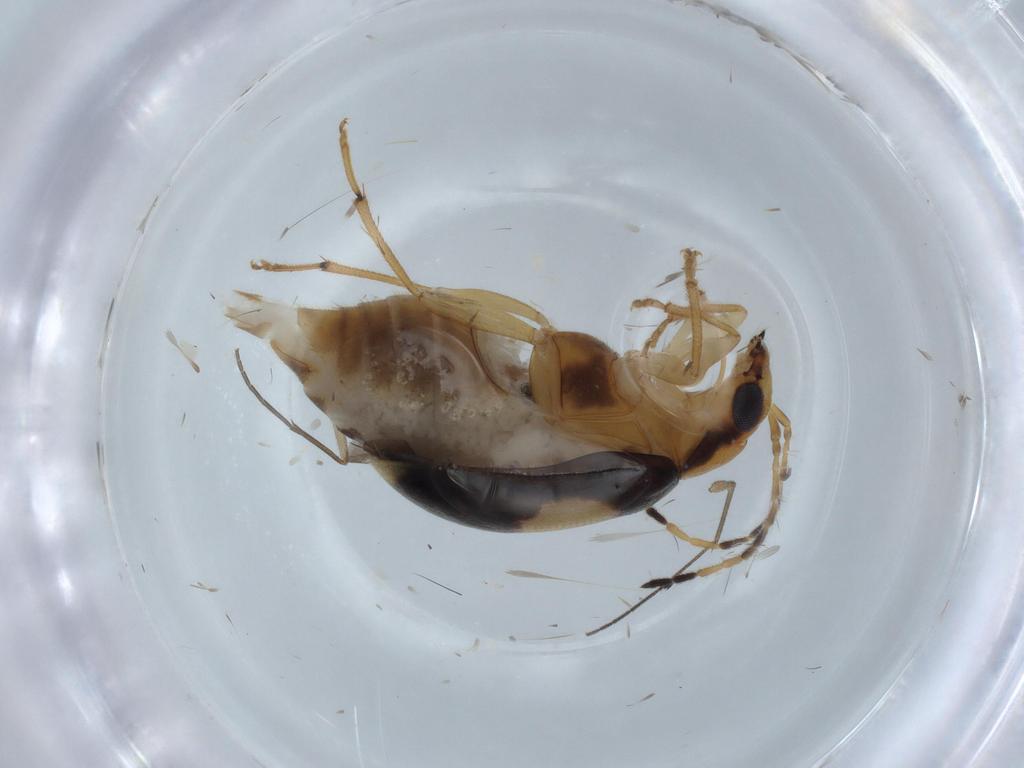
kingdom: Animalia
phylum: Arthropoda
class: Insecta
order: Coleoptera
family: Chrysomelidae
